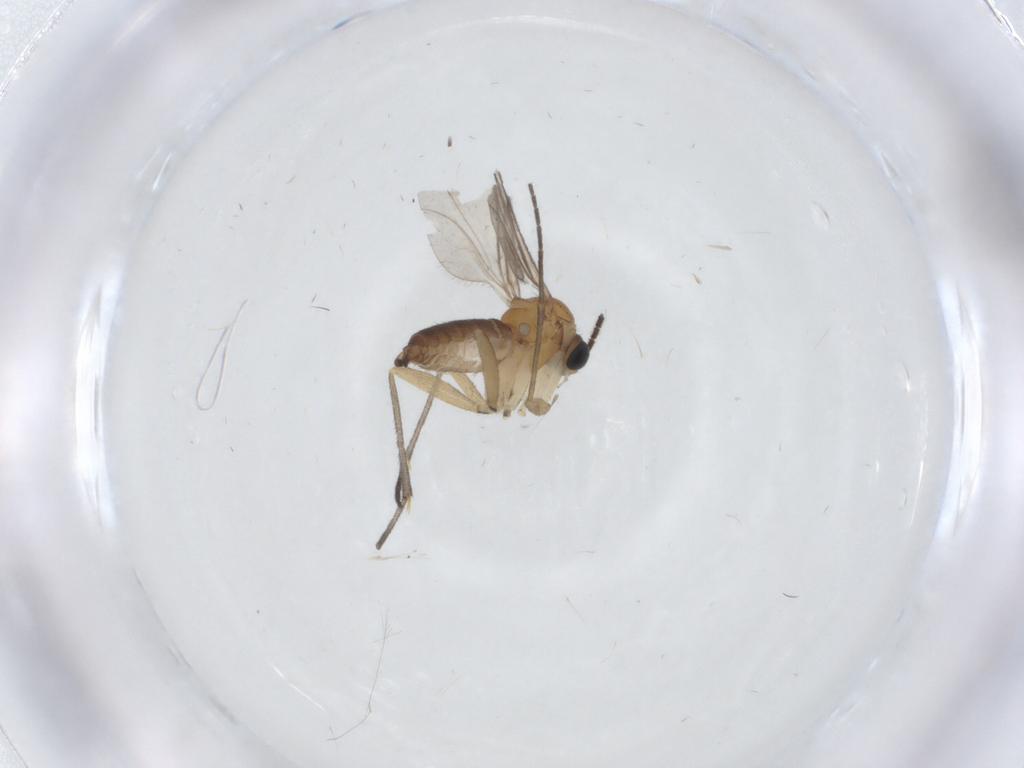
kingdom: Animalia
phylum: Arthropoda
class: Insecta
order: Diptera
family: Sciaridae
